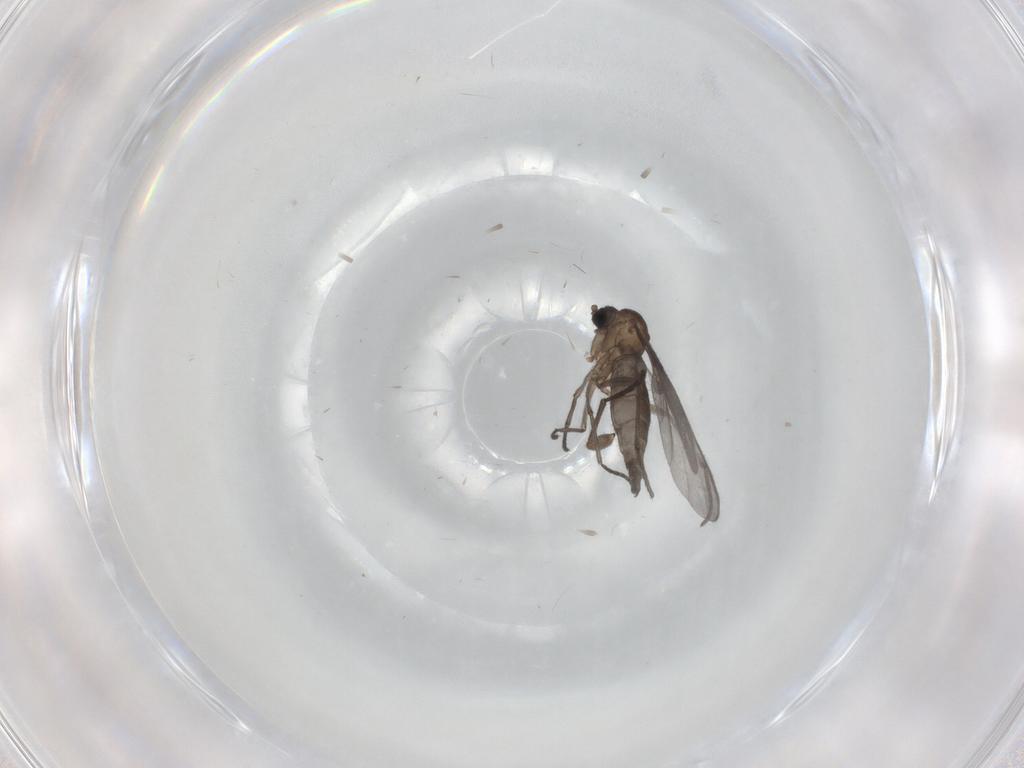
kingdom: Animalia
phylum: Arthropoda
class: Insecta
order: Diptera
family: Sciaridae
